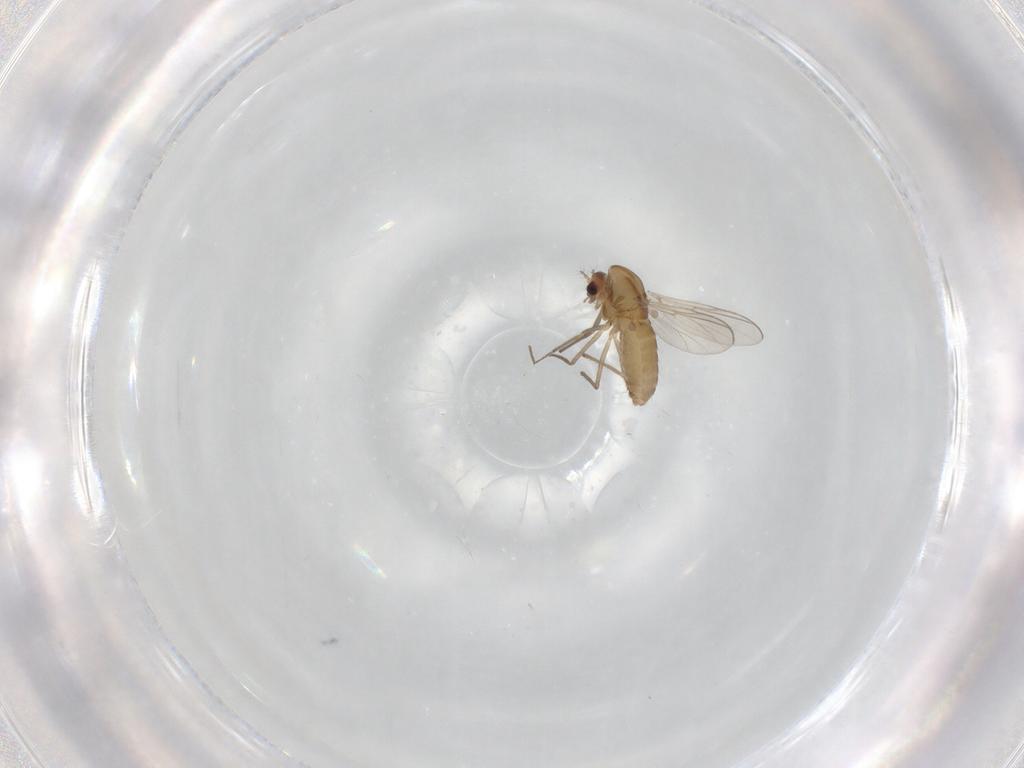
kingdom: Animalia
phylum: Arthropoda
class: Insecta
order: Diptera
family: Chironomidae
